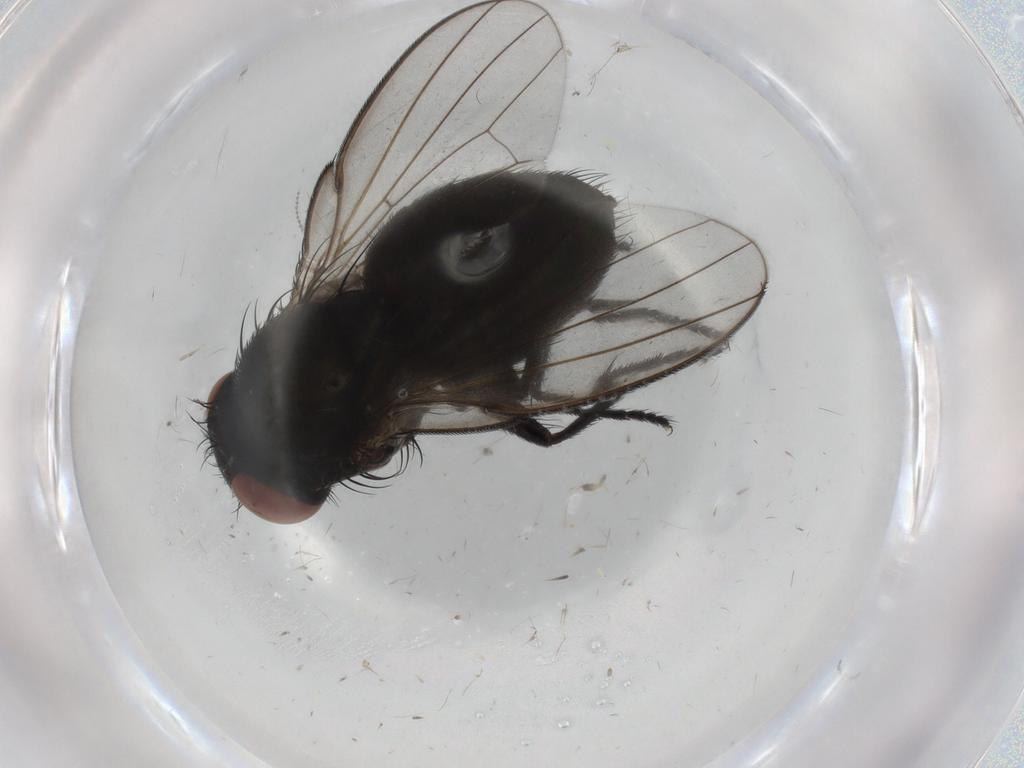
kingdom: Animalia
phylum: Arthropoda
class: Insecta
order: Diptera
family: Milichiidae
